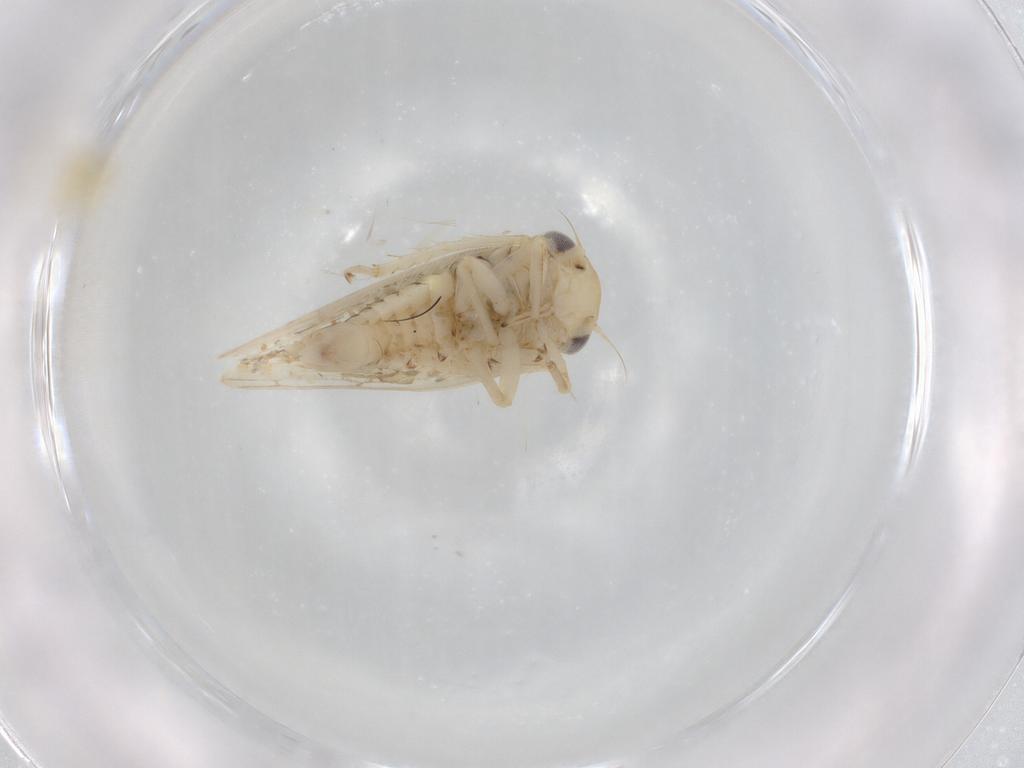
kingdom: Animalia
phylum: Arthropoda
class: Insecta
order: Hemiptera
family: Cicadellidae
